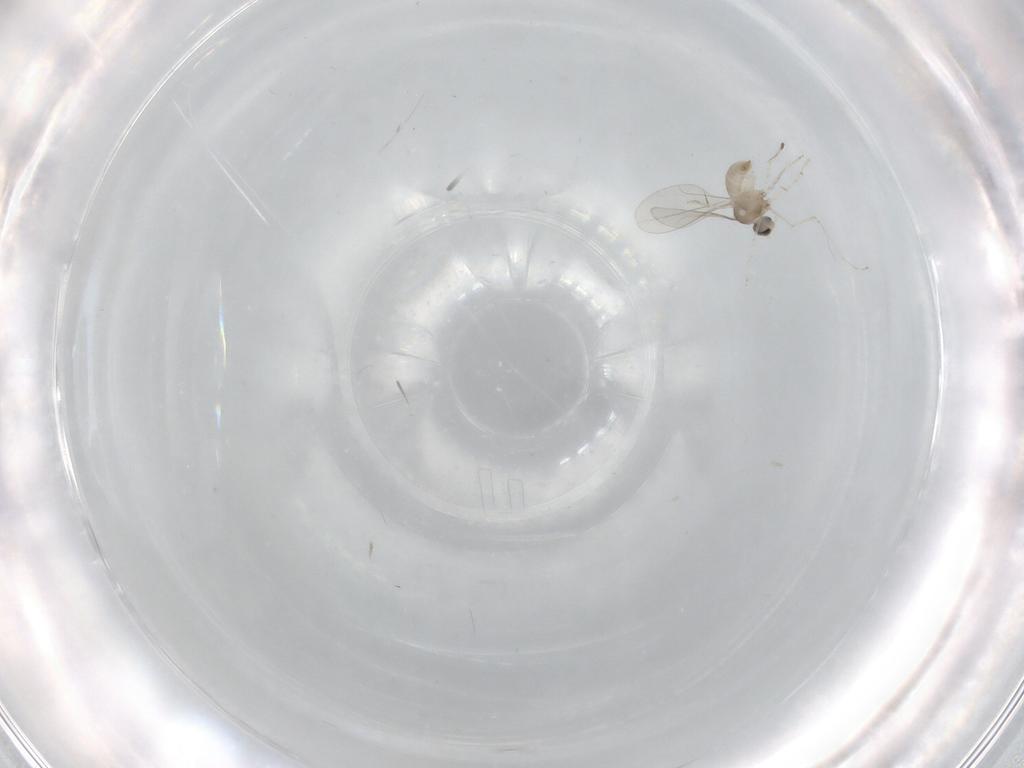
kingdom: Animalia
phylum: Arthropoda
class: Insecta
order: Diptera
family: Cecidomyiidae
